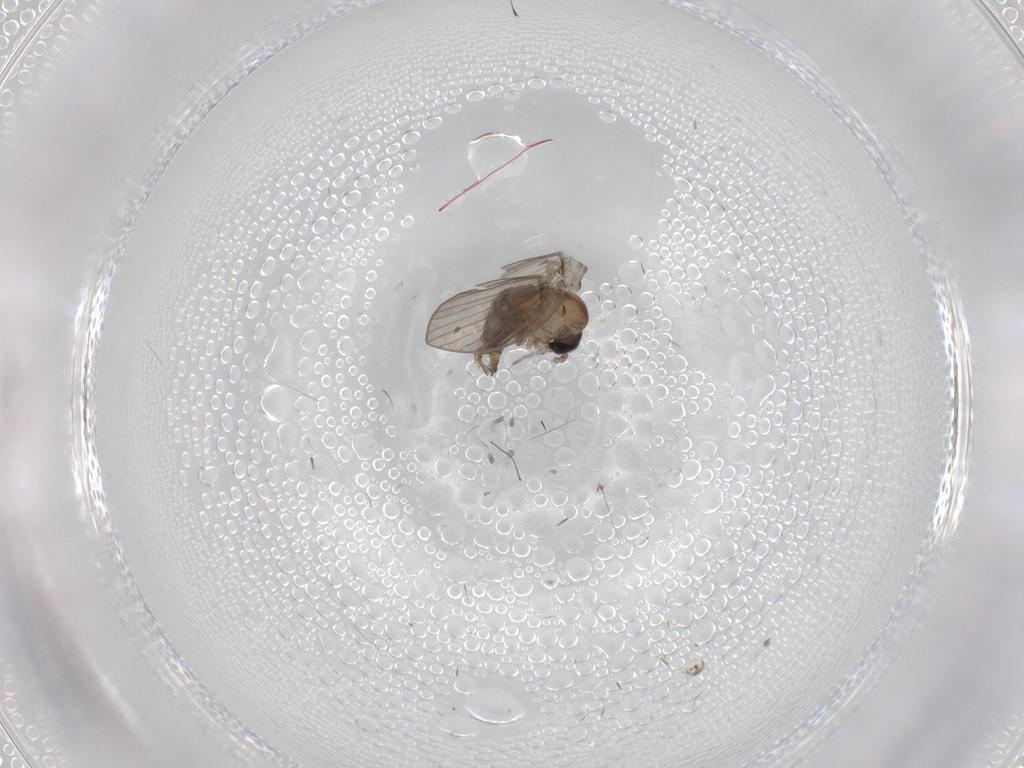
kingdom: Animalia
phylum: Arthropoda
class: Insecta
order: Diptera
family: Psychodidae
